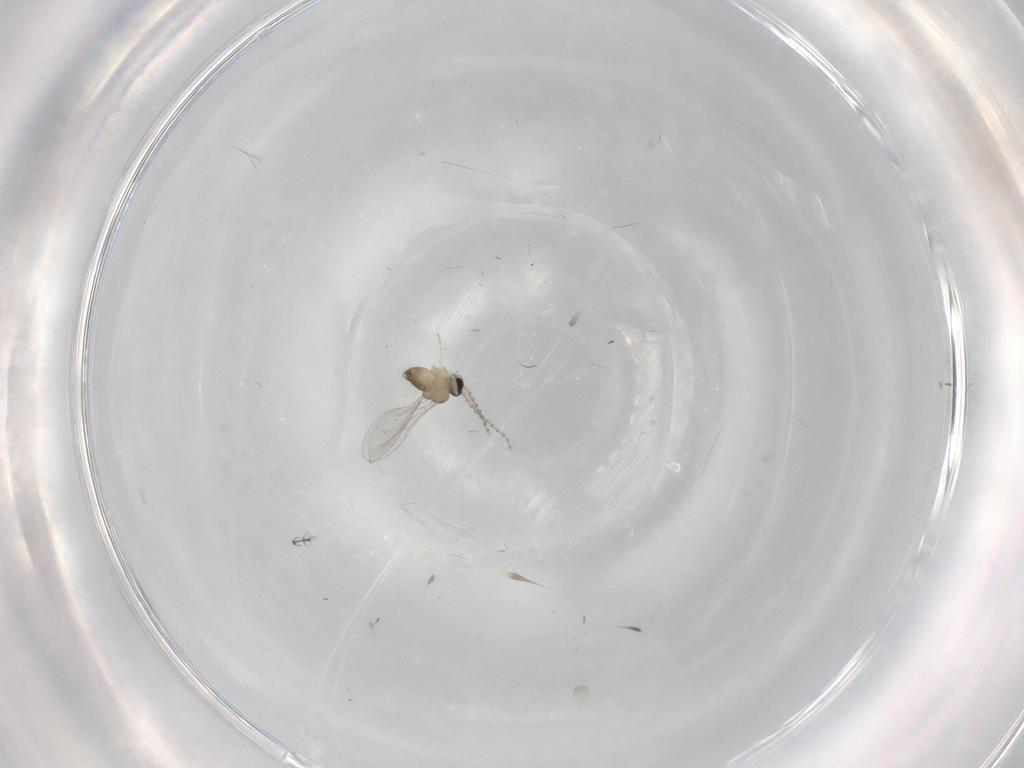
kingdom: Animalia
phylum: Arthropoda
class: Insecta
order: Diptera
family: Cecidomyiidae
